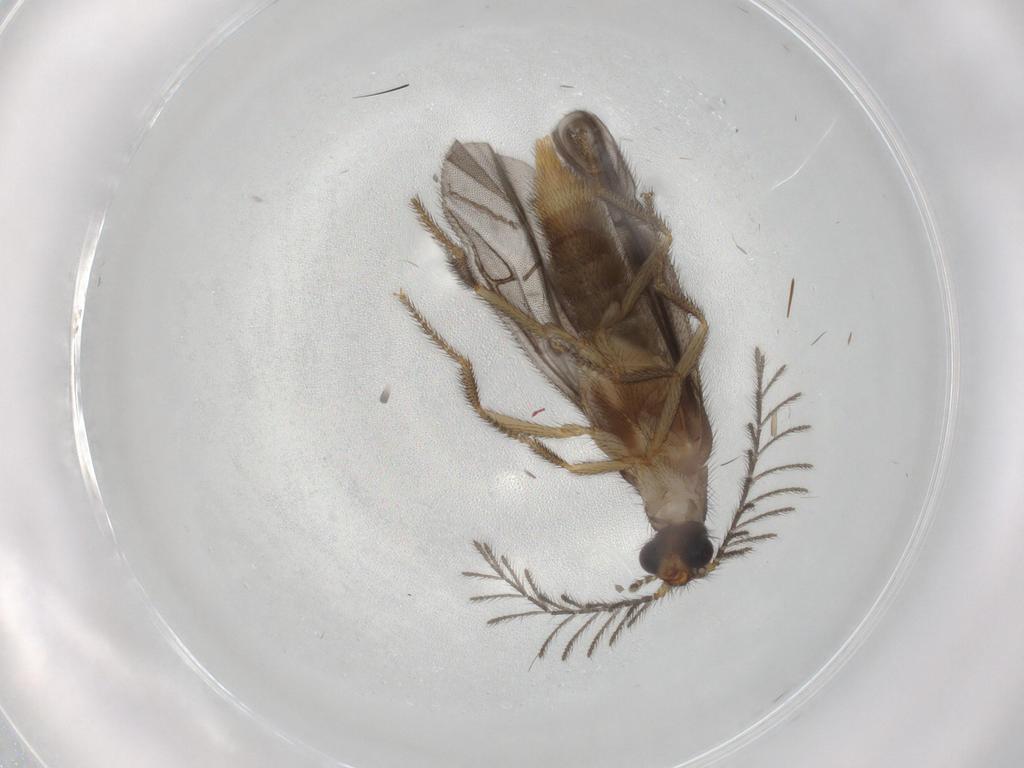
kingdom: Animalia
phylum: Arthropoda
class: Insecta
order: Coleoptera
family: Phengodidae
